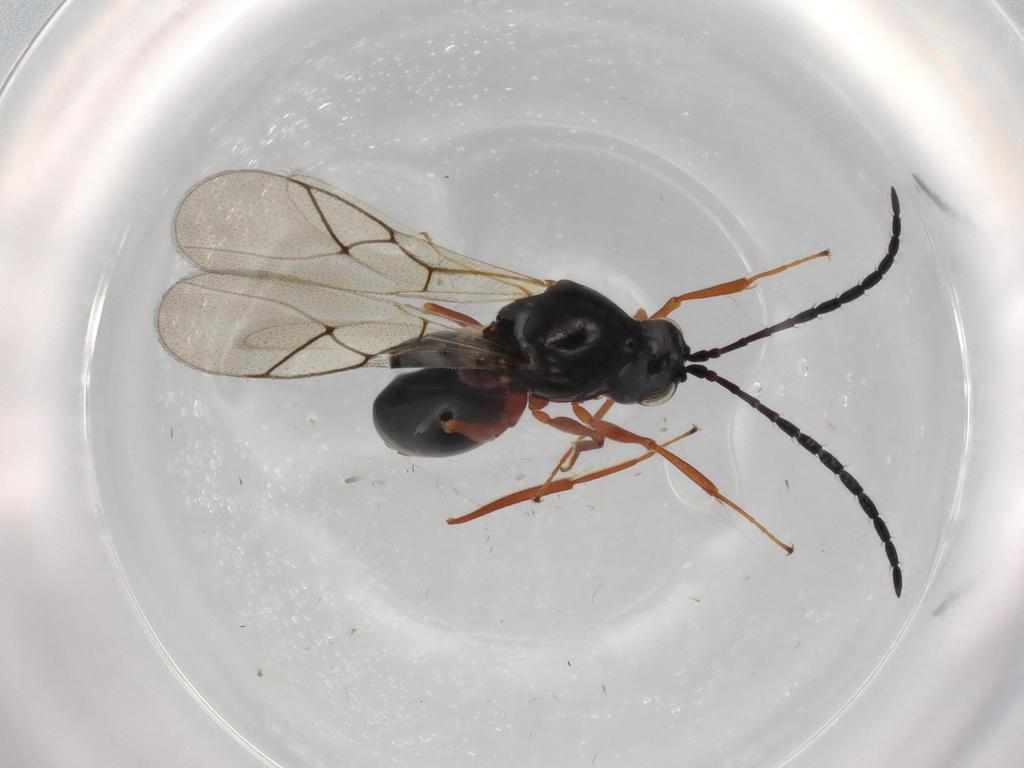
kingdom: Animalia
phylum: Arthropoda
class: Insecta
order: Hymenoptera
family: Figitidae
